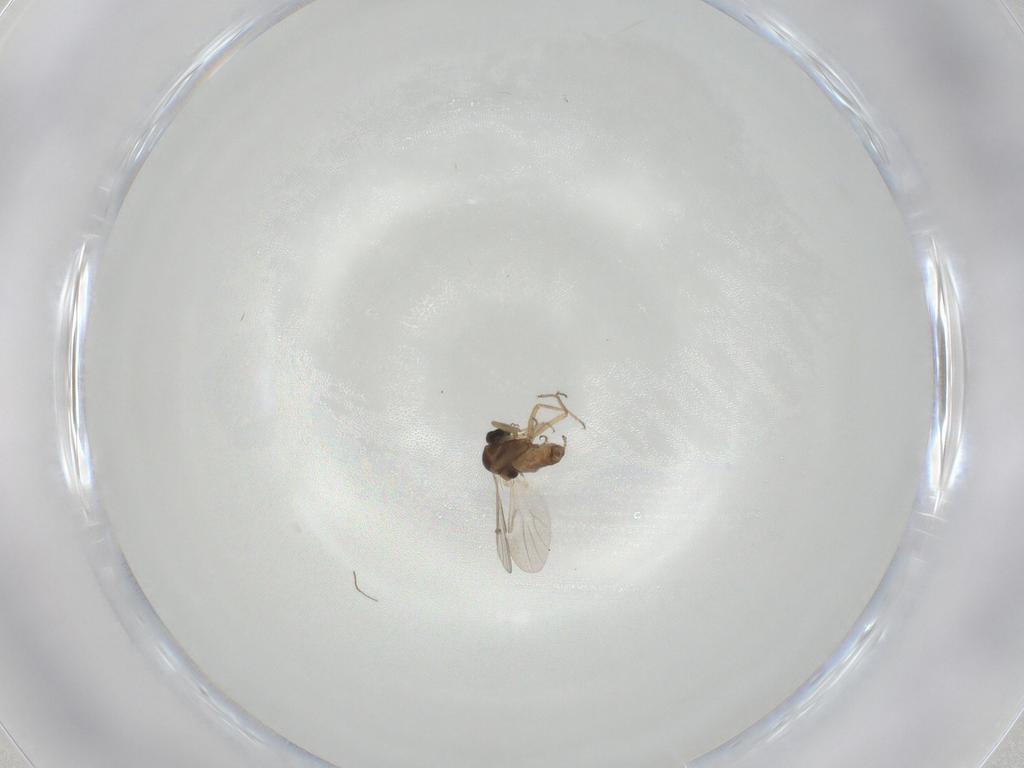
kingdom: Animalia
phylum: Arthropoda
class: Insecta
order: Diptera
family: Ceratopogonidae
